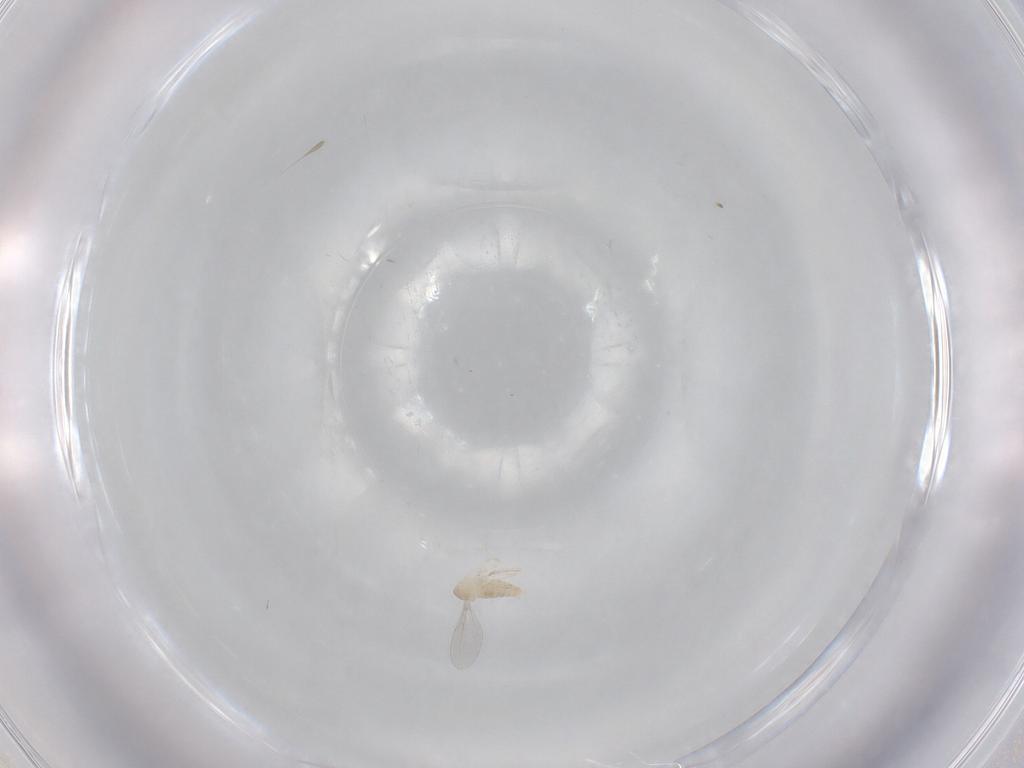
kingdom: Animalia
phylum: Arthropoda
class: Insecta
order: Diptera
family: Cecidomyiidae
